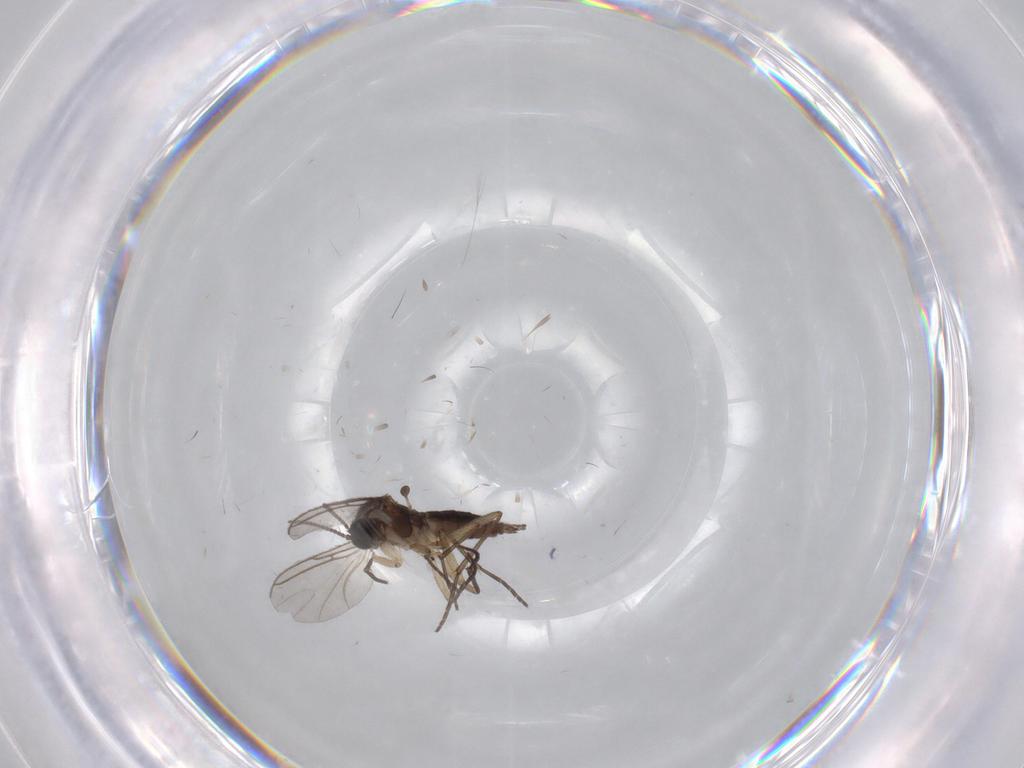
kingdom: Animalia
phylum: Arthropoda
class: Insecta
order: Diptera
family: Sciaridae
